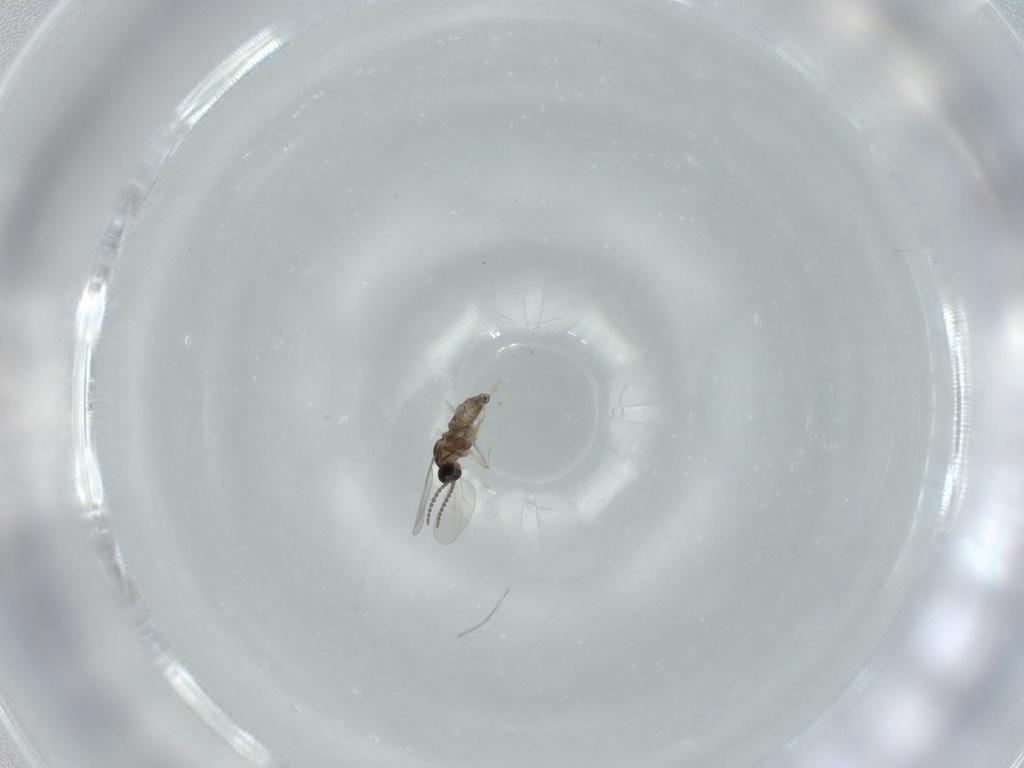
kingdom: Animalia
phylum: Arthropoda
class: Insecta
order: Diptera
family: Cecidomyiidae
